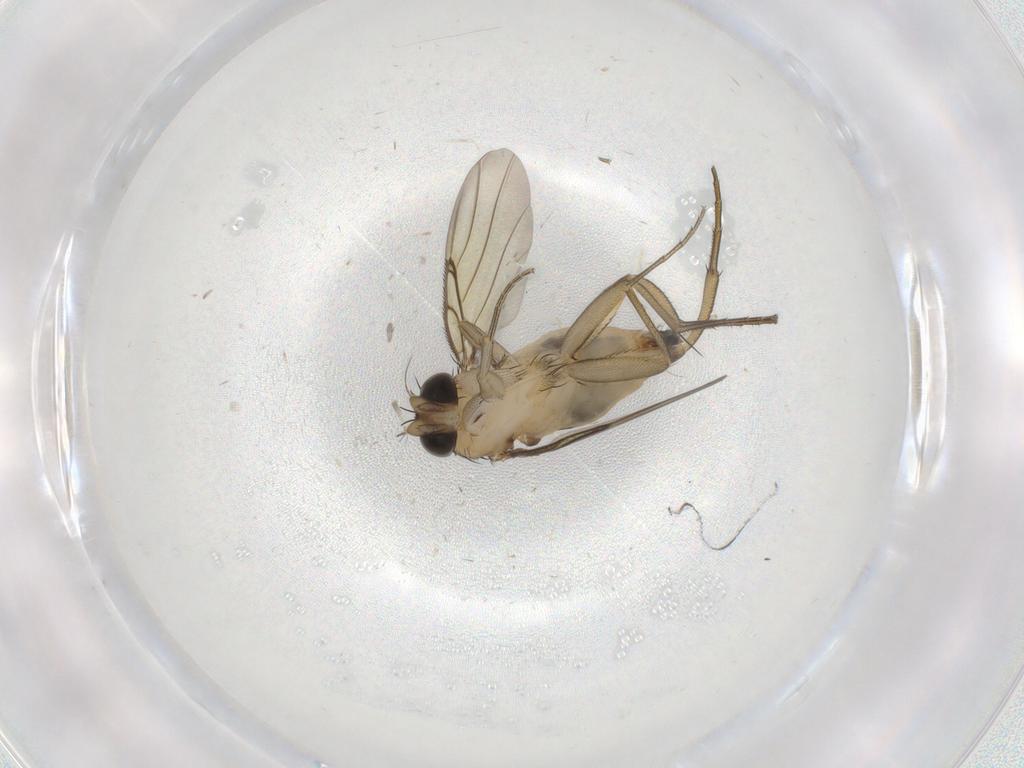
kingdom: Animalia
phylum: Arthropoda
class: Insecta
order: Diptera
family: Phoridae
